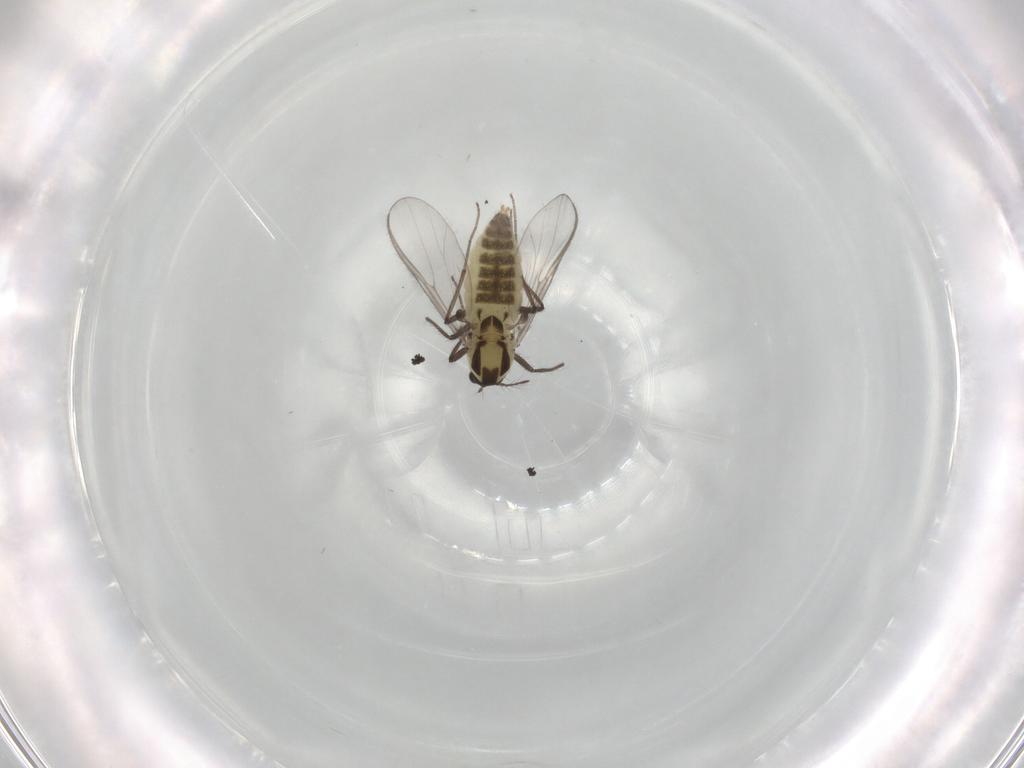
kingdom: Animalia
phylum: Arthropoda
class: Insecta
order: Diptera
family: Chironomidae
